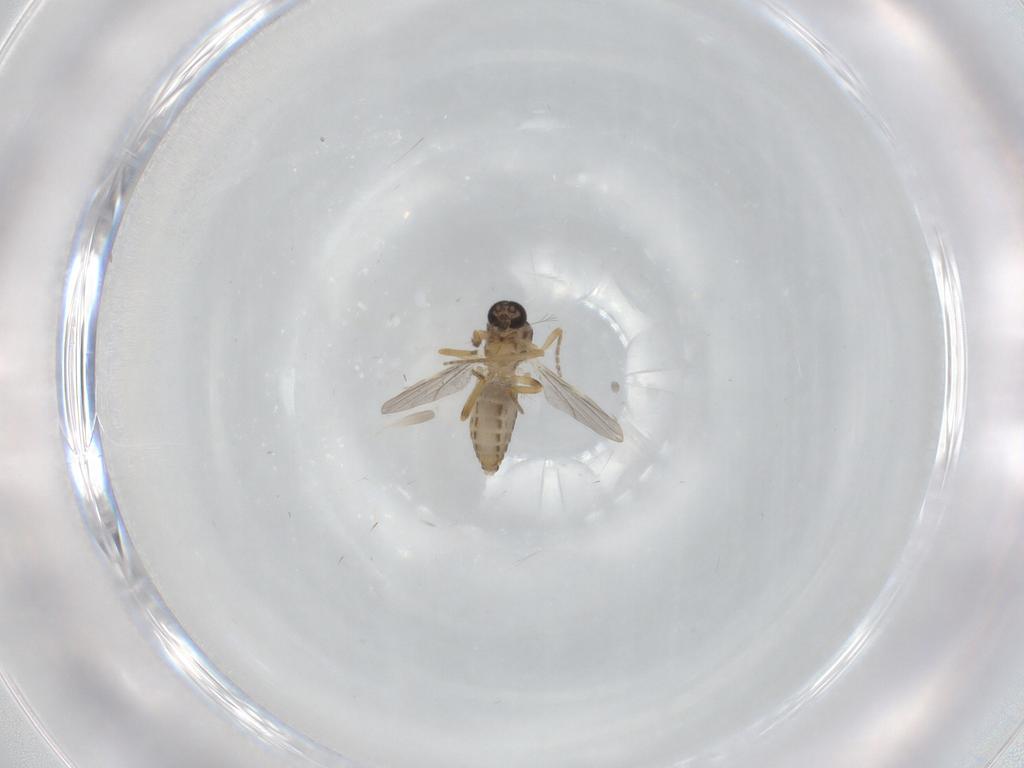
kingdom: Animalia
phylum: Arthropoda
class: Insecta
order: Diptera
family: Ceratopogonidae
